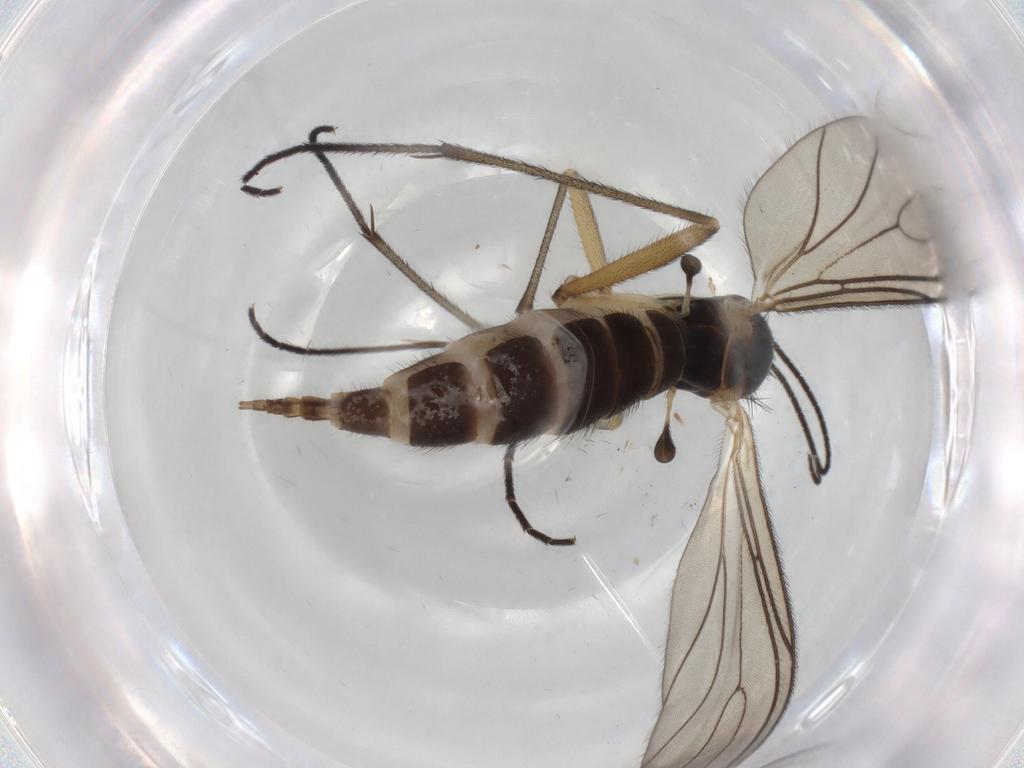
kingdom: Animalia
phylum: Arthropoda
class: Insecta
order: Diptera
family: Sciaridae
